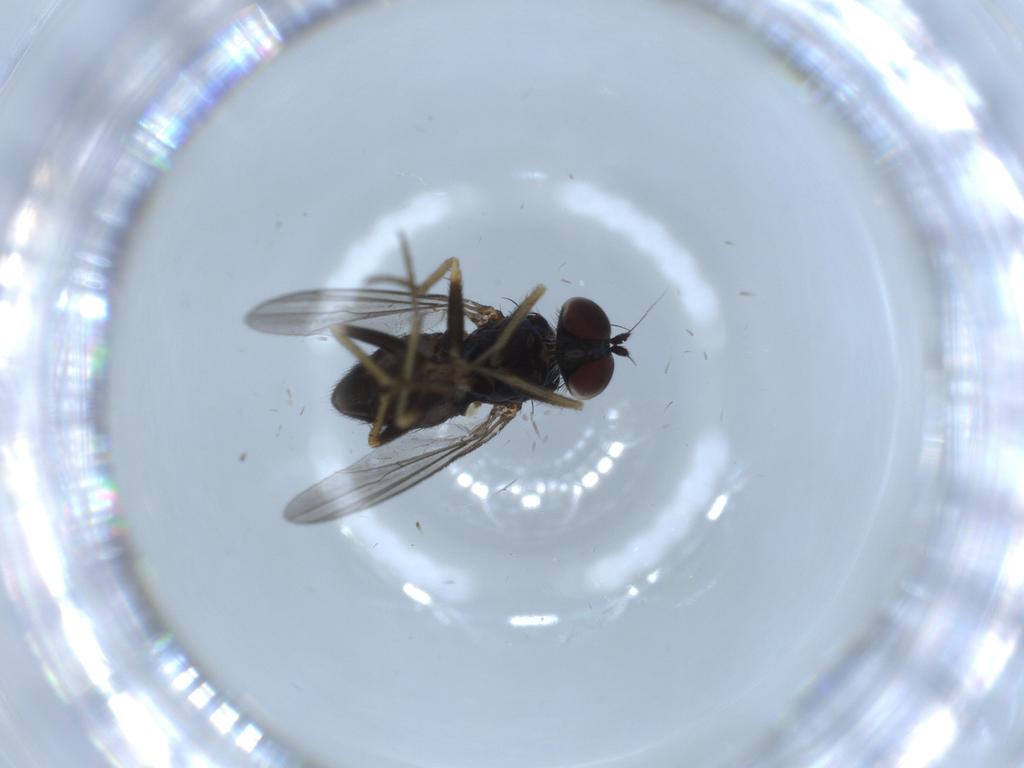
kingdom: Animalia
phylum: Arthropoda
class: Insecta
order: Diptera
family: Dolichopodidae
